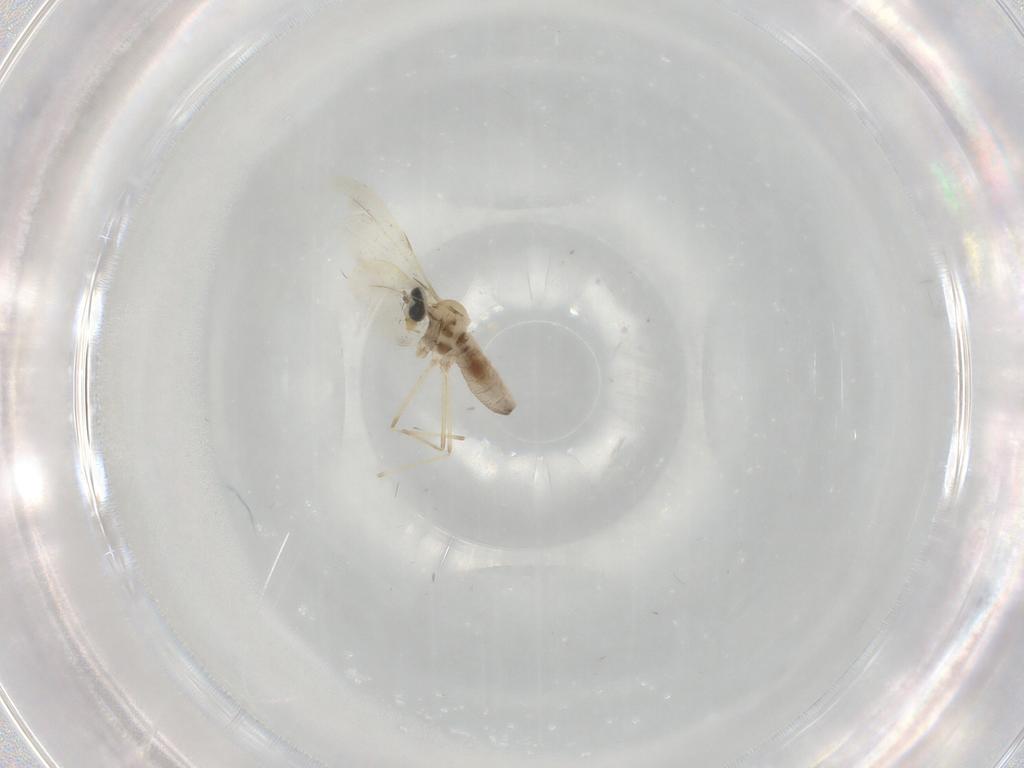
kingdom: Animalia
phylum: Arthropoda
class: Insecta
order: Diptera
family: Cecidomyiidae
